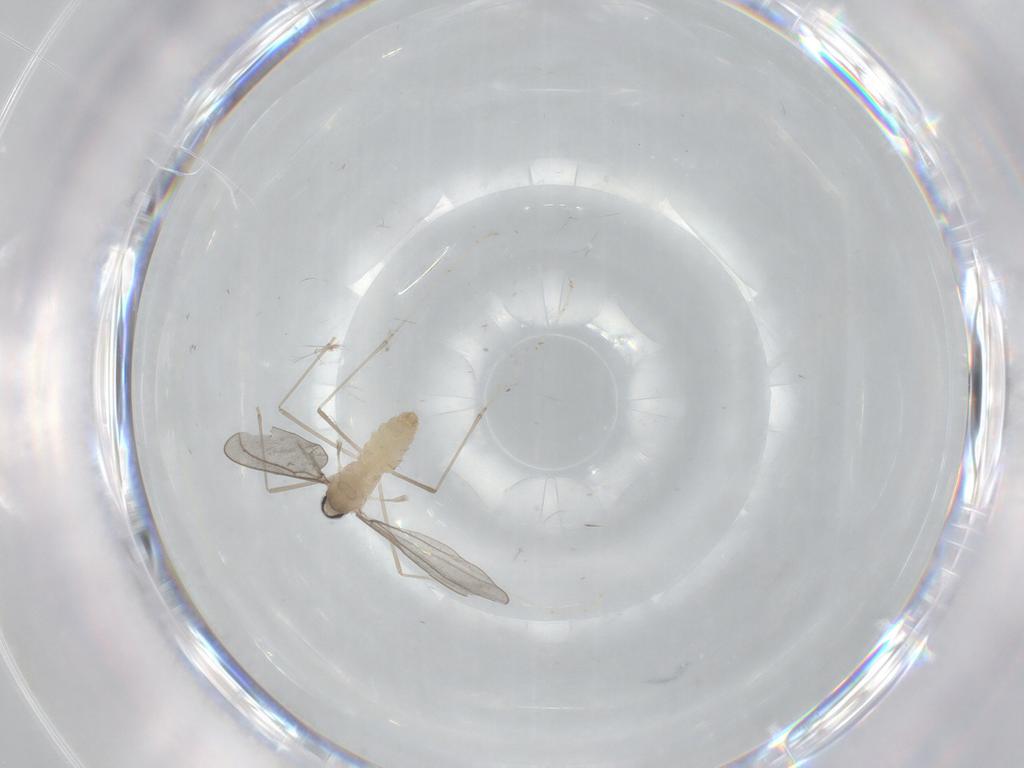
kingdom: Animalia
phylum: Arthropoda
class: Insecta
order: Diptera
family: Cecidomyiidae
